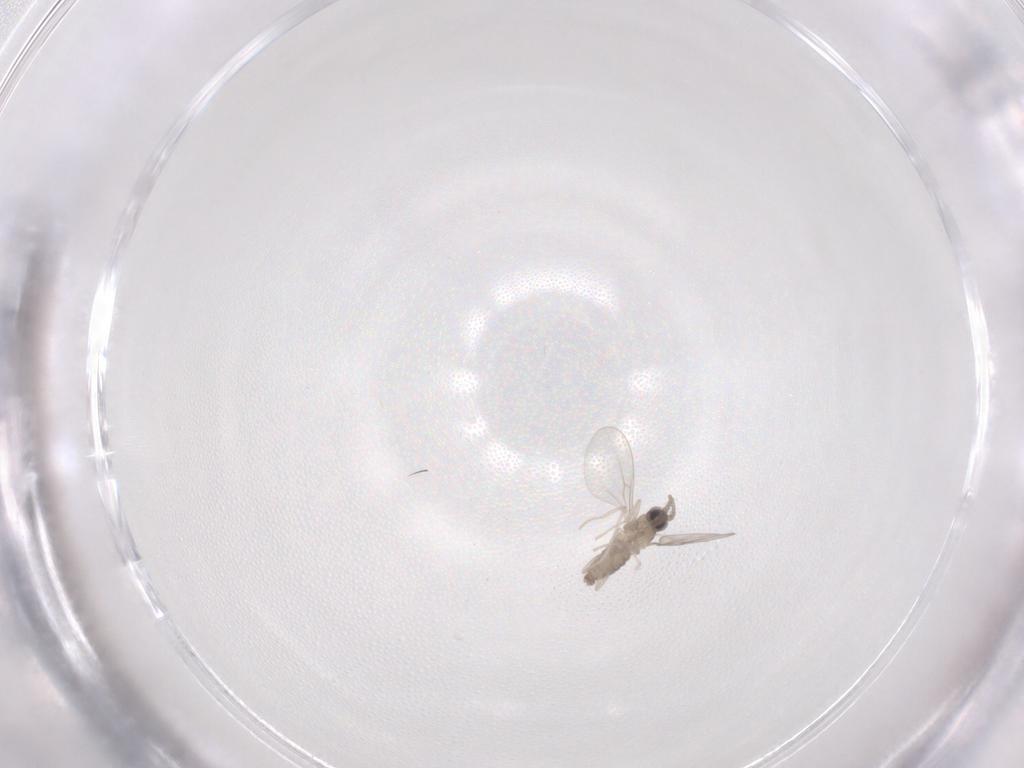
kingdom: Animalia
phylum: Arthropoda
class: Insecta
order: Diptera
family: Cecidomyiidae
